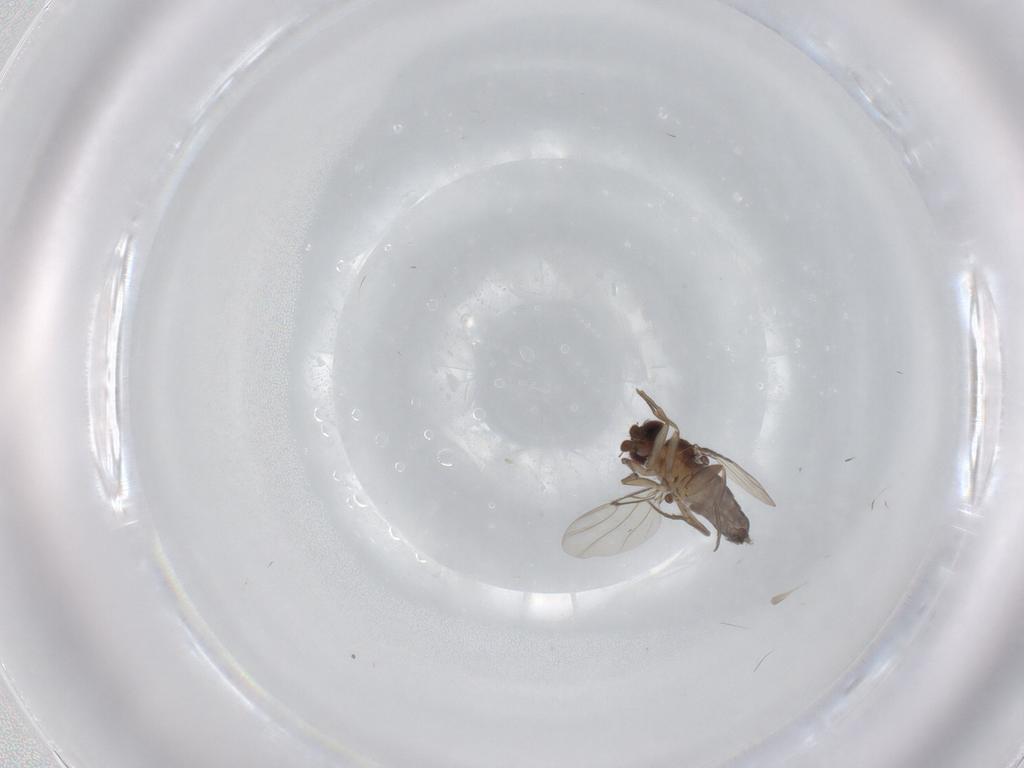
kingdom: Animalia
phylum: Arthropoda
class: Insecta
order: Diptera
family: Phoridae
